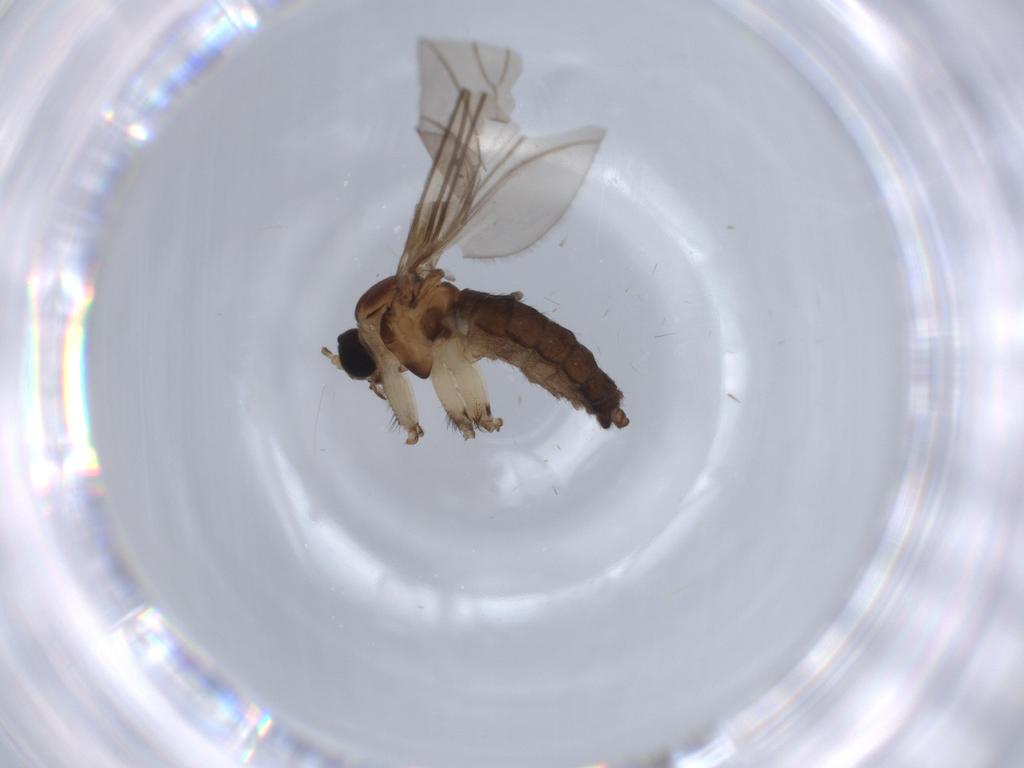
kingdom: Animalia
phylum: Arthropoda
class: Insecta
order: Diptera
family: Sciaridae
